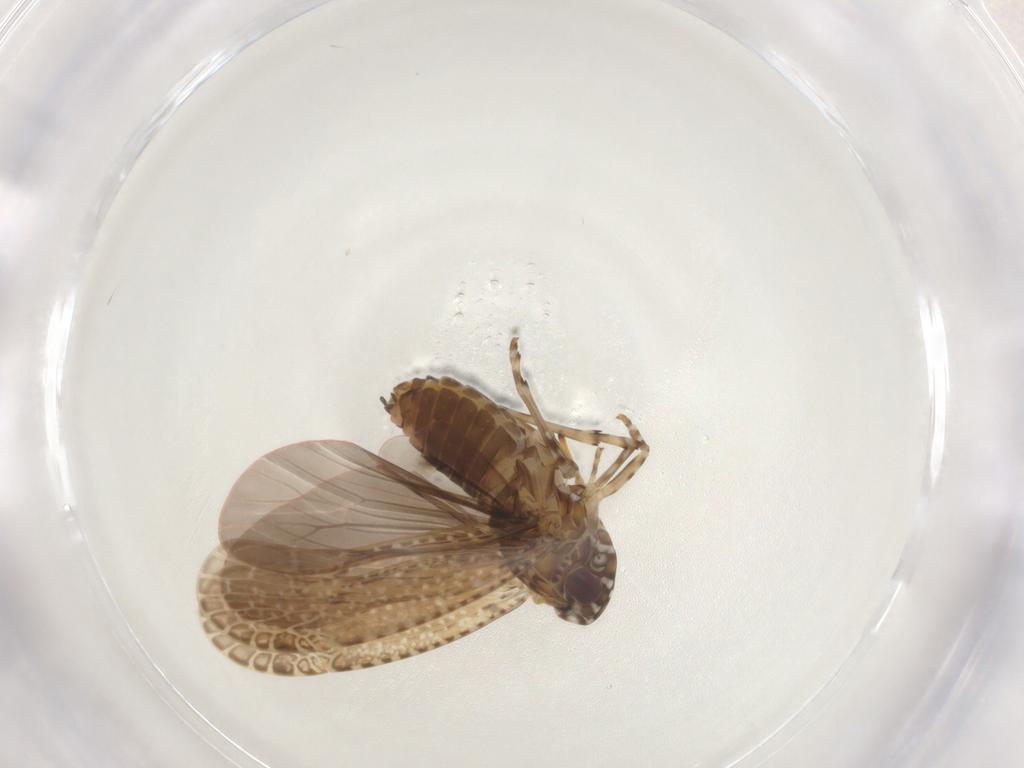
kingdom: Animalia
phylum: Arthropoda
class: Insecta
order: Hemiptera
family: Achilidae
